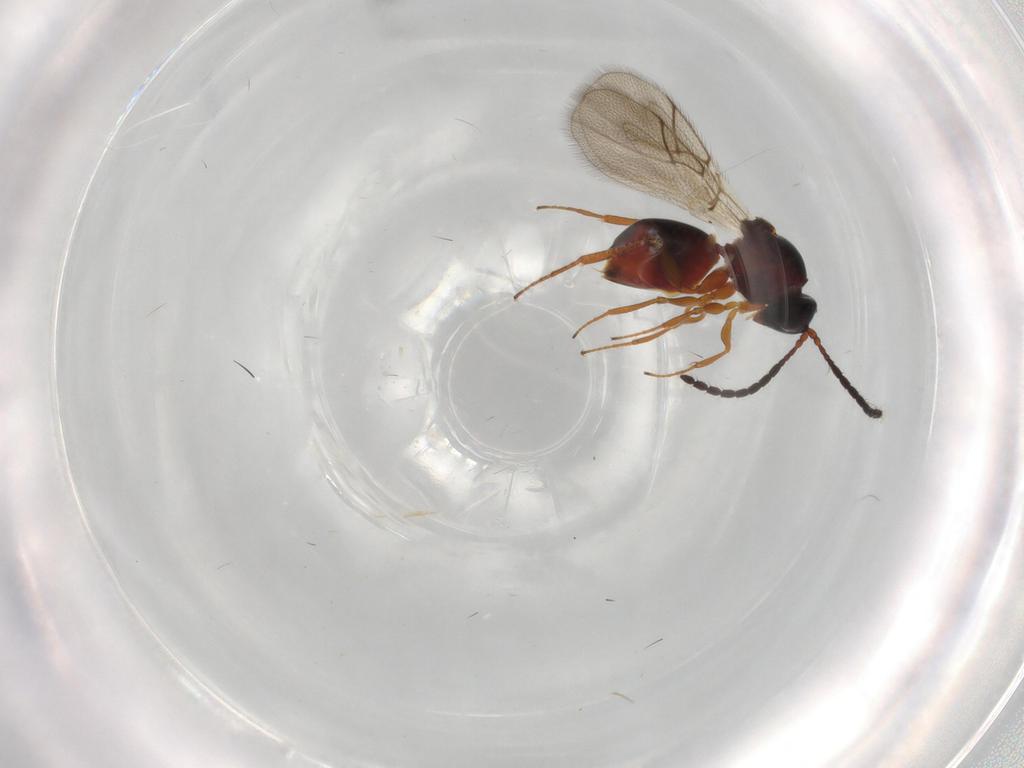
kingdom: Animalia
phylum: Arthropoda
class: Insecta
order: Hymenoptera
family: Figitidae
